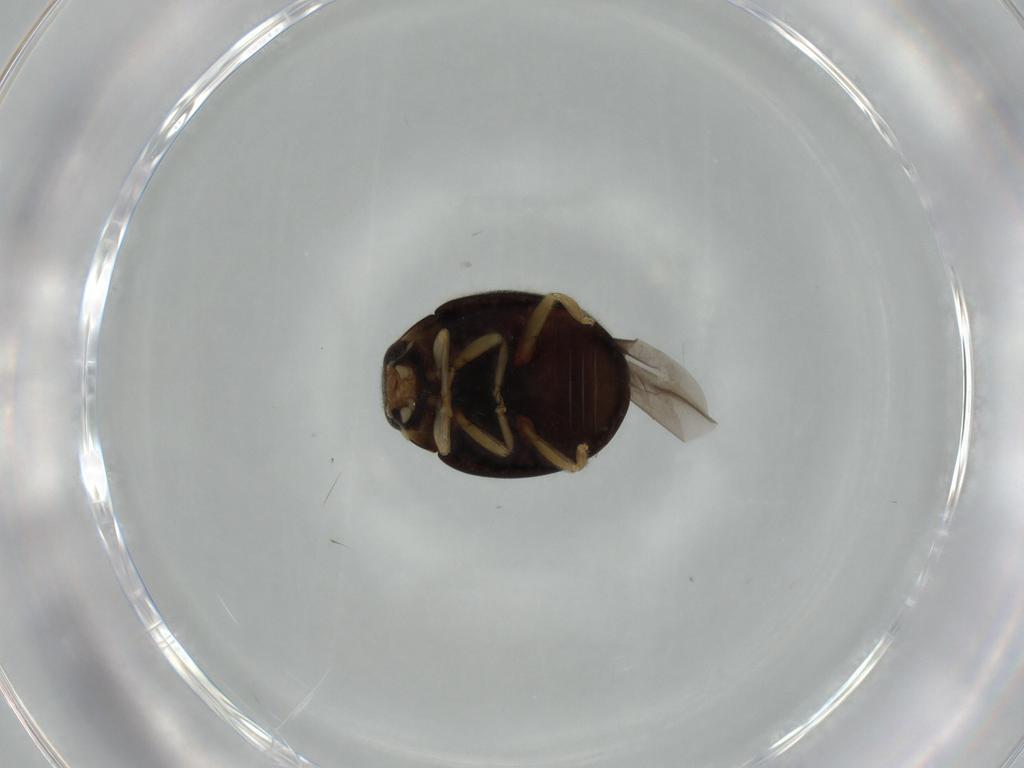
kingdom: Animalia
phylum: Arthropoda
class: Insecta
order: Coleoptera
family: Coccinellidae
